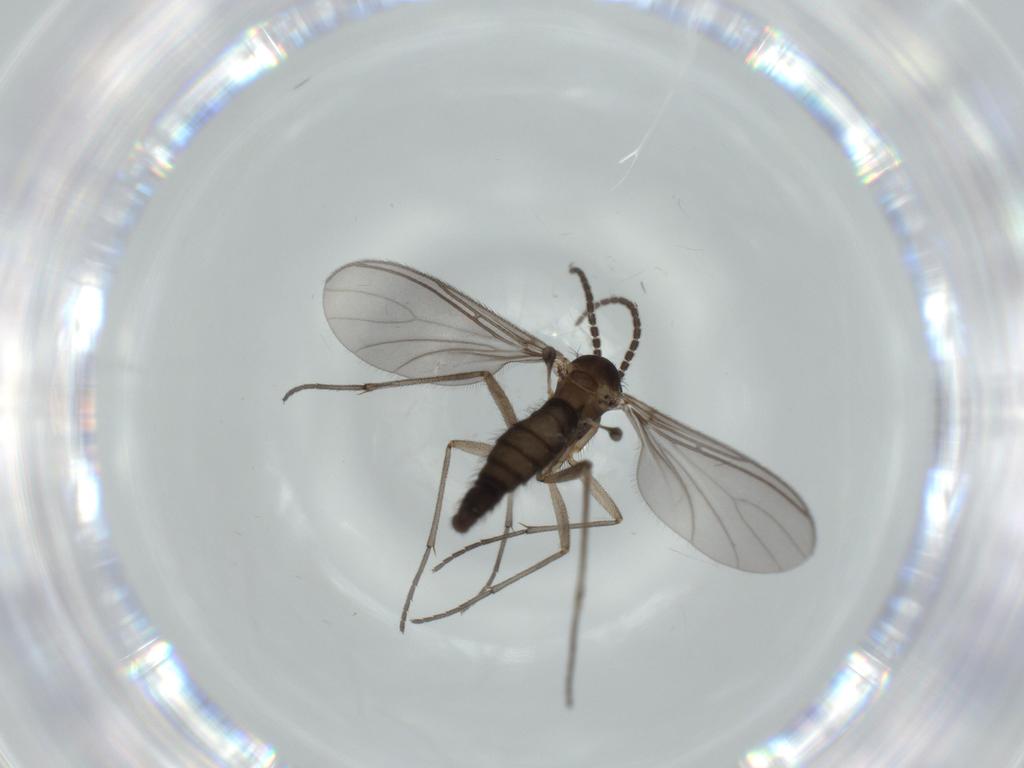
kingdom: Animalia
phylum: Arthropoda
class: Insecta
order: Diptera
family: Sciaridae
